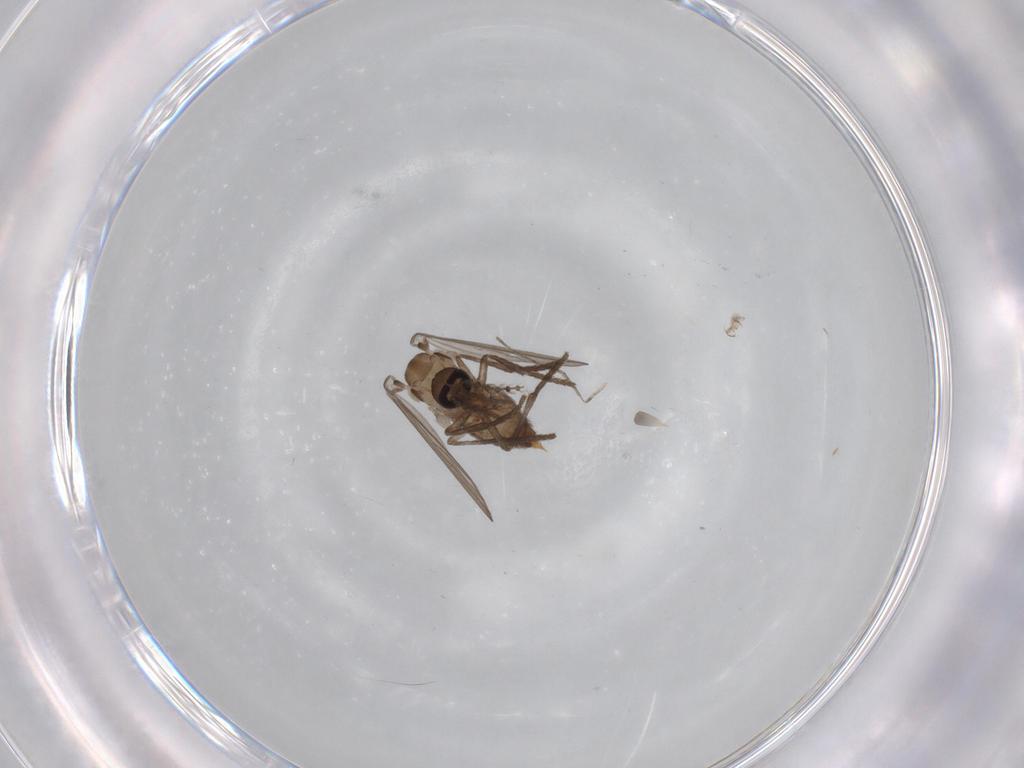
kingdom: Animalia
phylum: Arthropoda
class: Insecta
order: Diptera
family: Psychodidae
